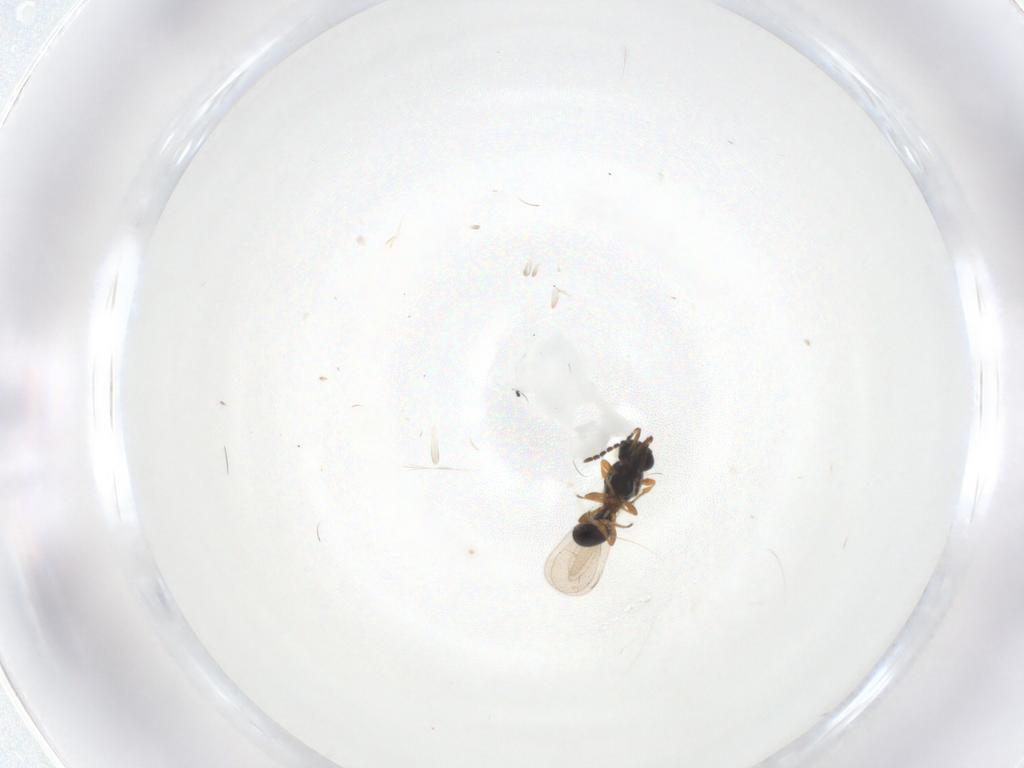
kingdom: Animalia
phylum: Arthropoda
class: Insecta
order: Hymenoptera
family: Platygastridae
